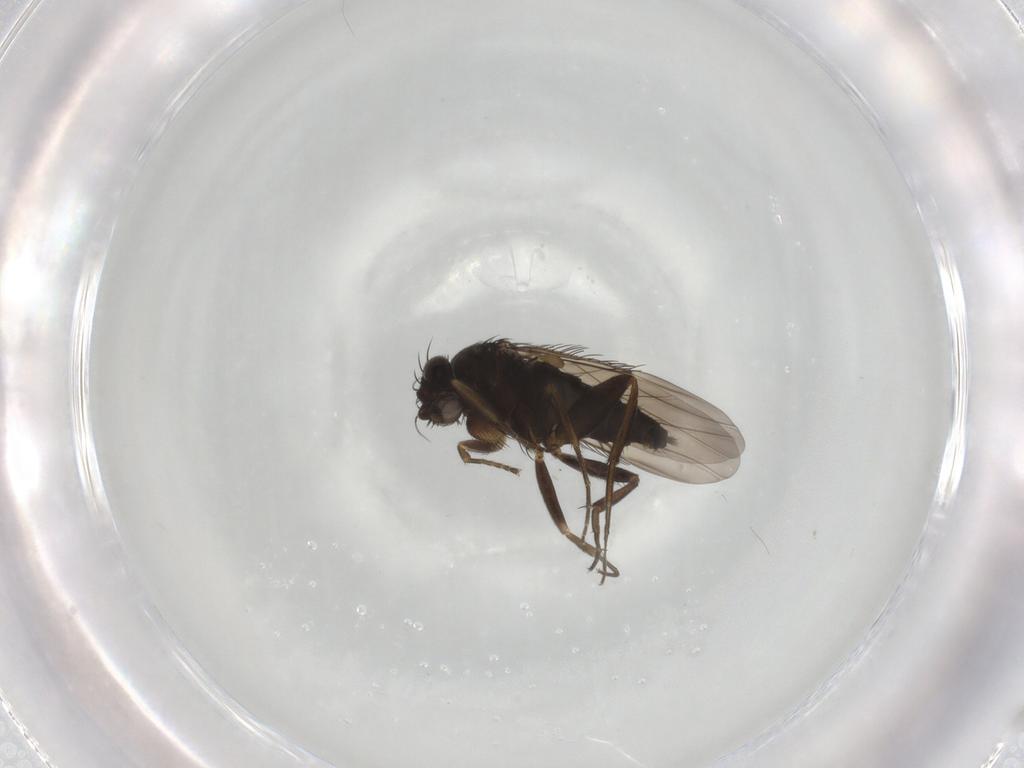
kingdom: Animalia
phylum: Arthropoda
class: Insecta
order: Diptera
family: Phoridae
